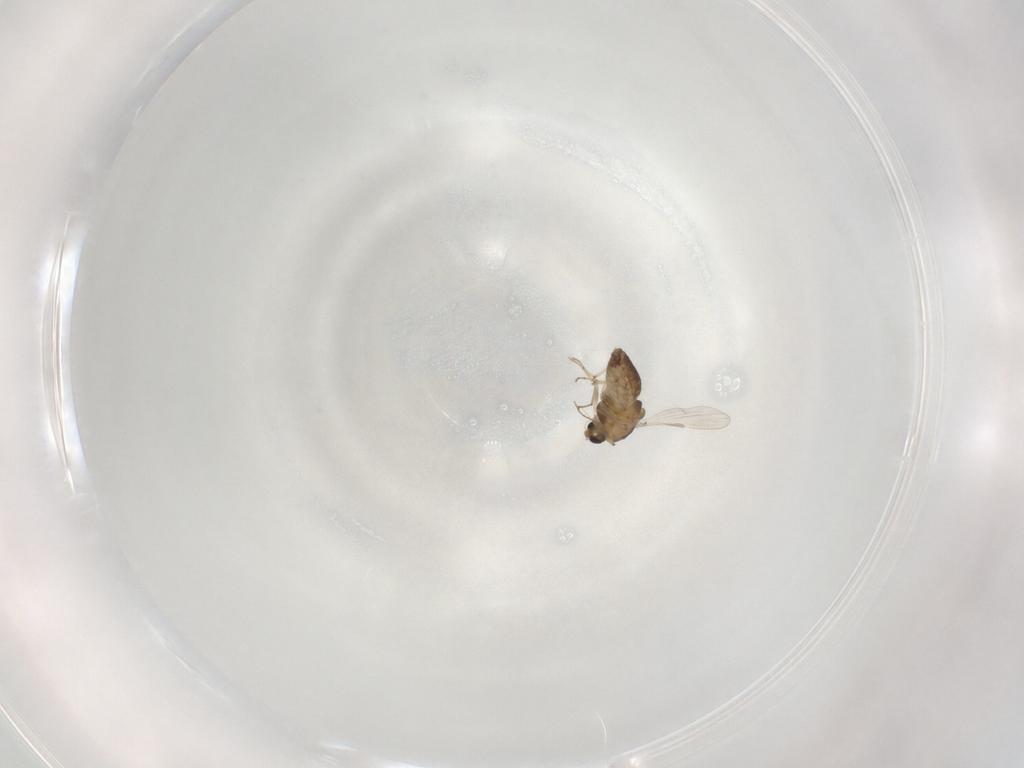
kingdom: Animalia
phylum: Arthropoda
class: Insecta
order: Diptera
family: Chironomidae
